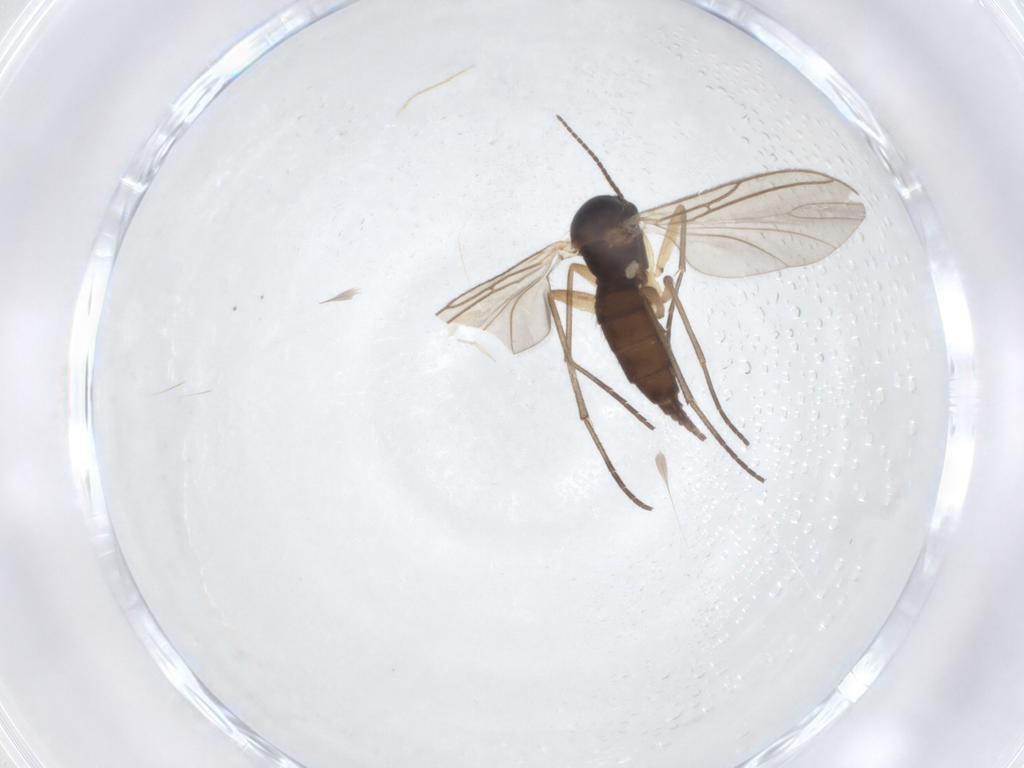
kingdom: Animalia
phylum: Arthropoda
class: Insecta
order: Diptera
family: Sciaridae
